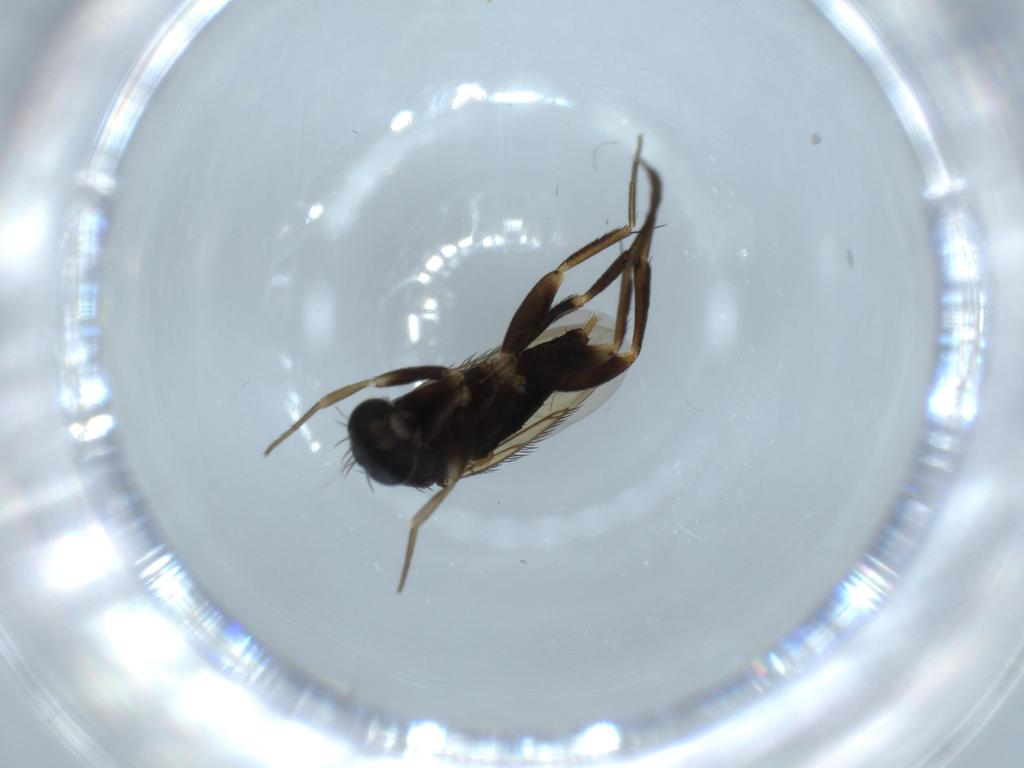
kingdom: Animalia
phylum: Arthropoda
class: Insecta
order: Diptera
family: Phoridae
